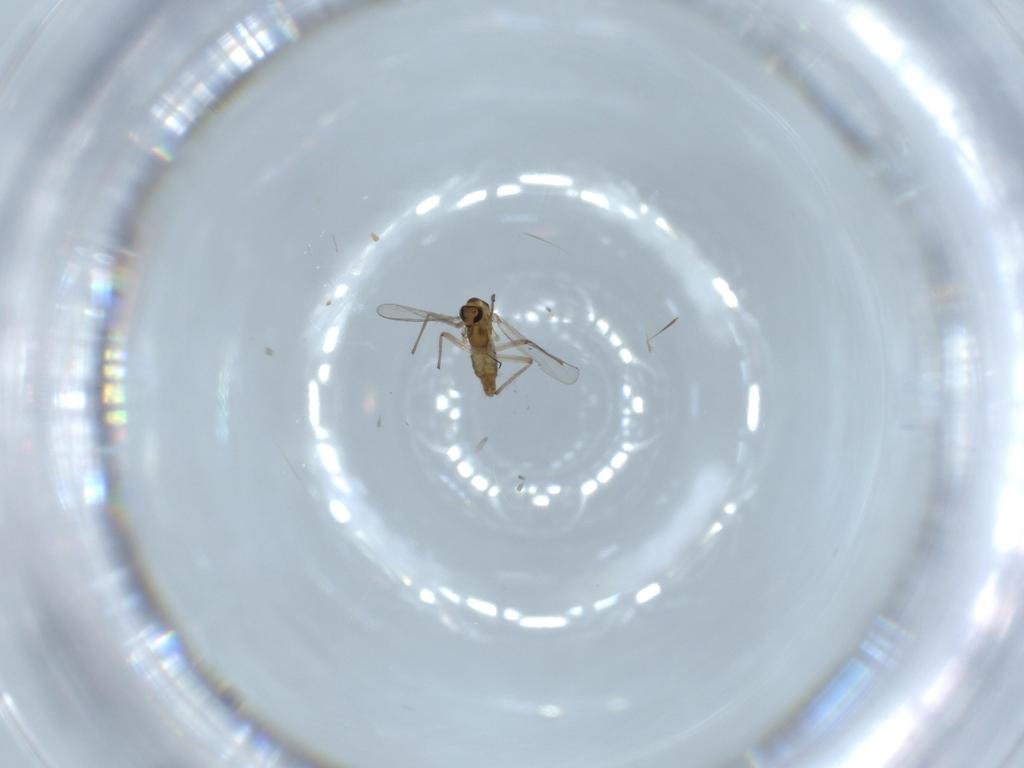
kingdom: Animalia
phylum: Arthropoda
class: Insecta
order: Diptera
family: Chironomidae
